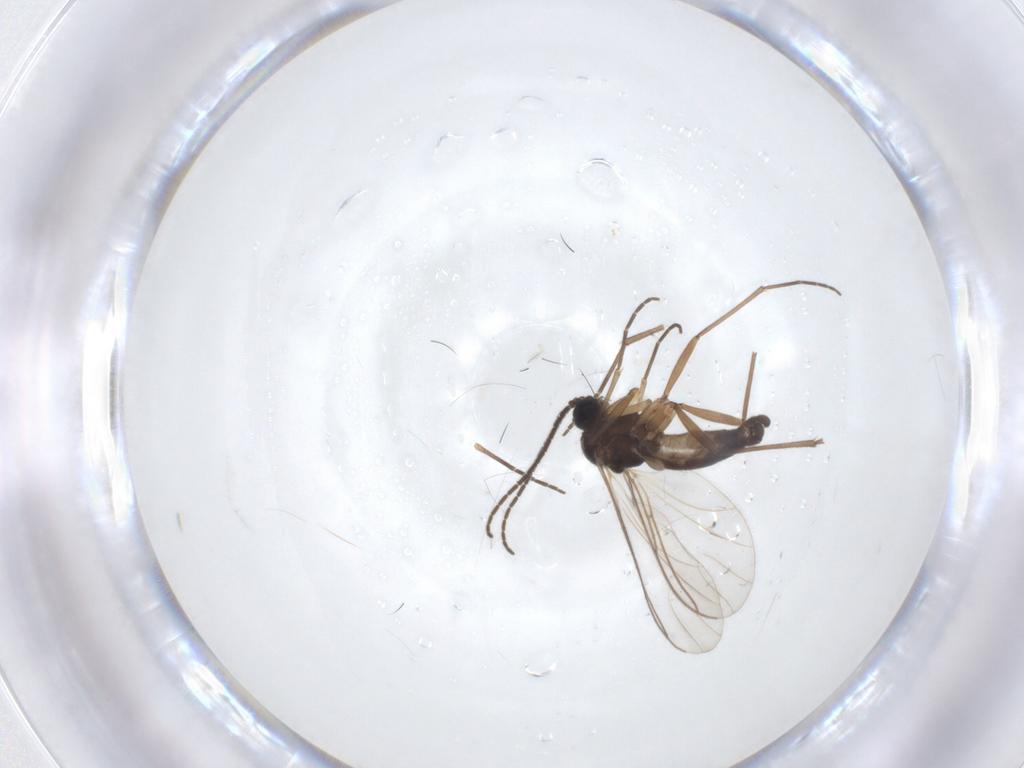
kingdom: Animalia
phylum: Arthropoda
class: Insecta
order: Diptera
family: Sciaridae
